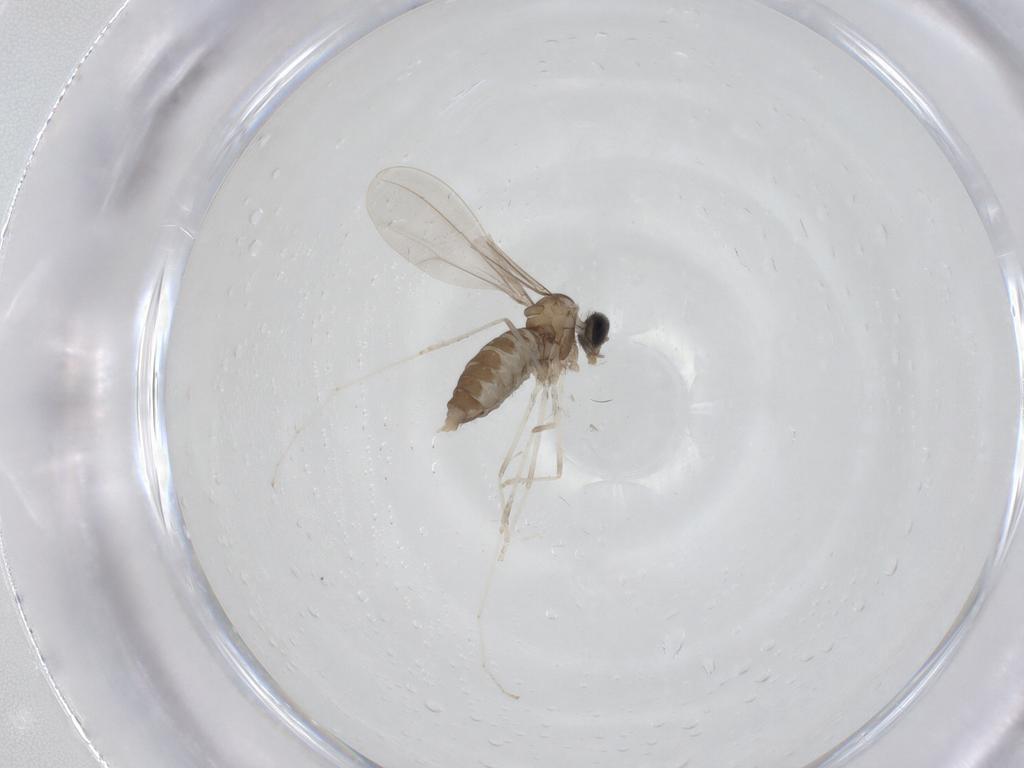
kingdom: Animalia
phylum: Arthropoda
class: Insecta
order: Diptera
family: Cecidomyiidae
